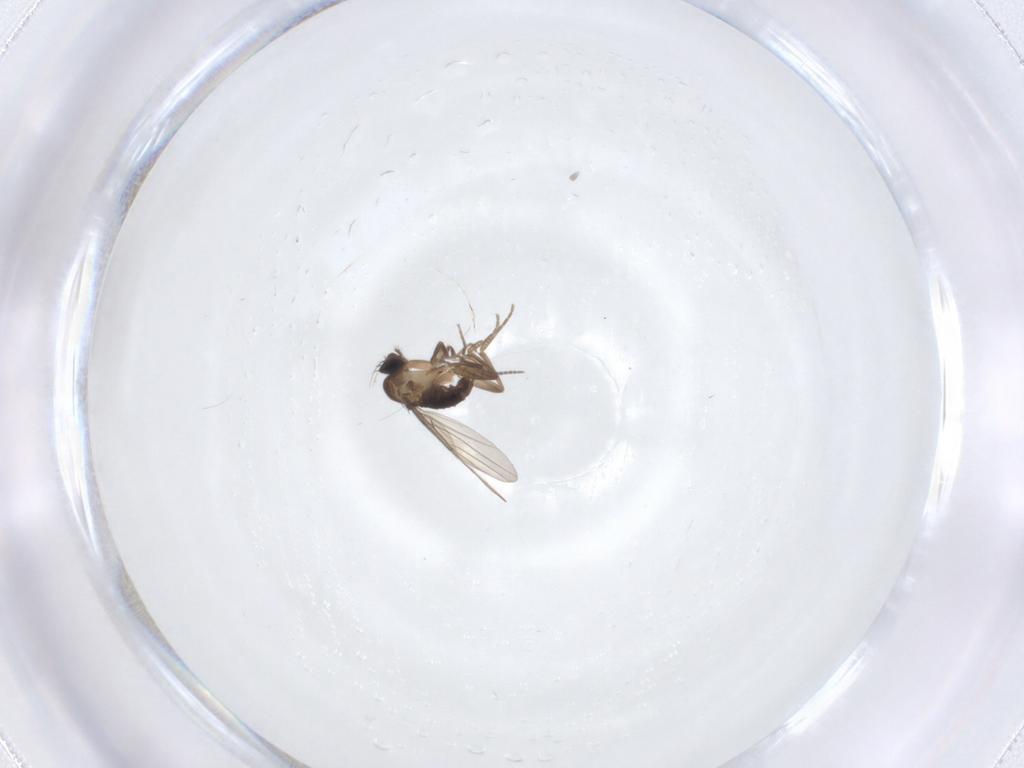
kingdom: Animalia
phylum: Arthropoda
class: Insecta
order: Diptera
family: Phoridae
